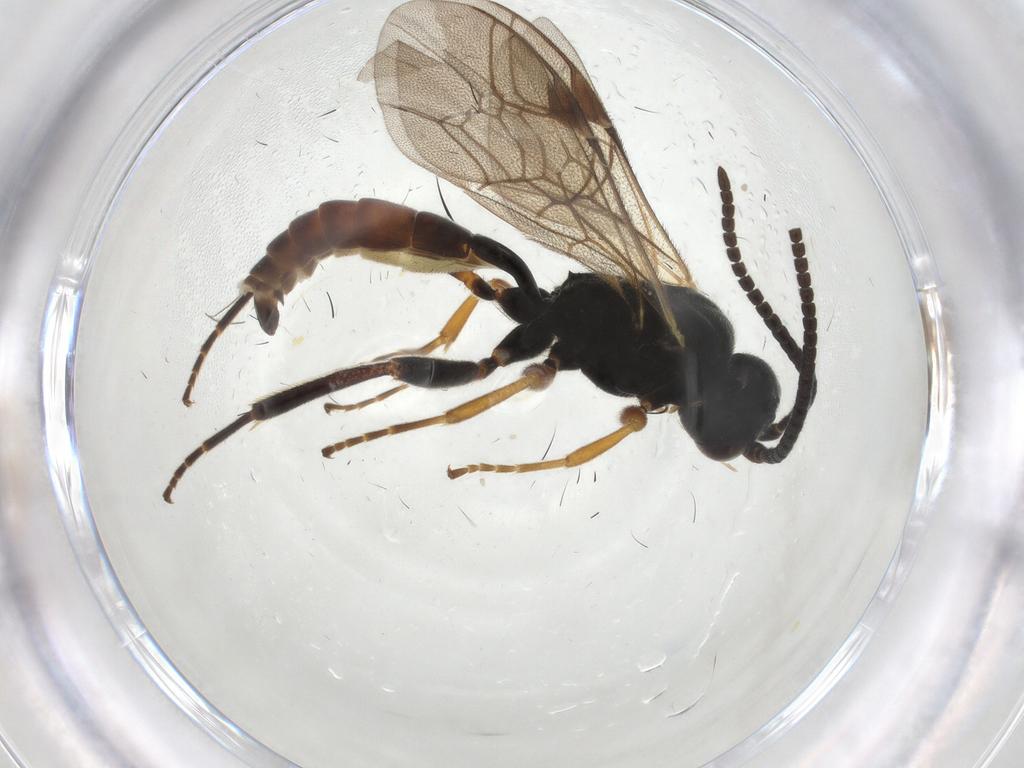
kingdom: Animalia
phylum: Arthropoda
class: Insecta
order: Hymenoptera
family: Ichneumonidae
